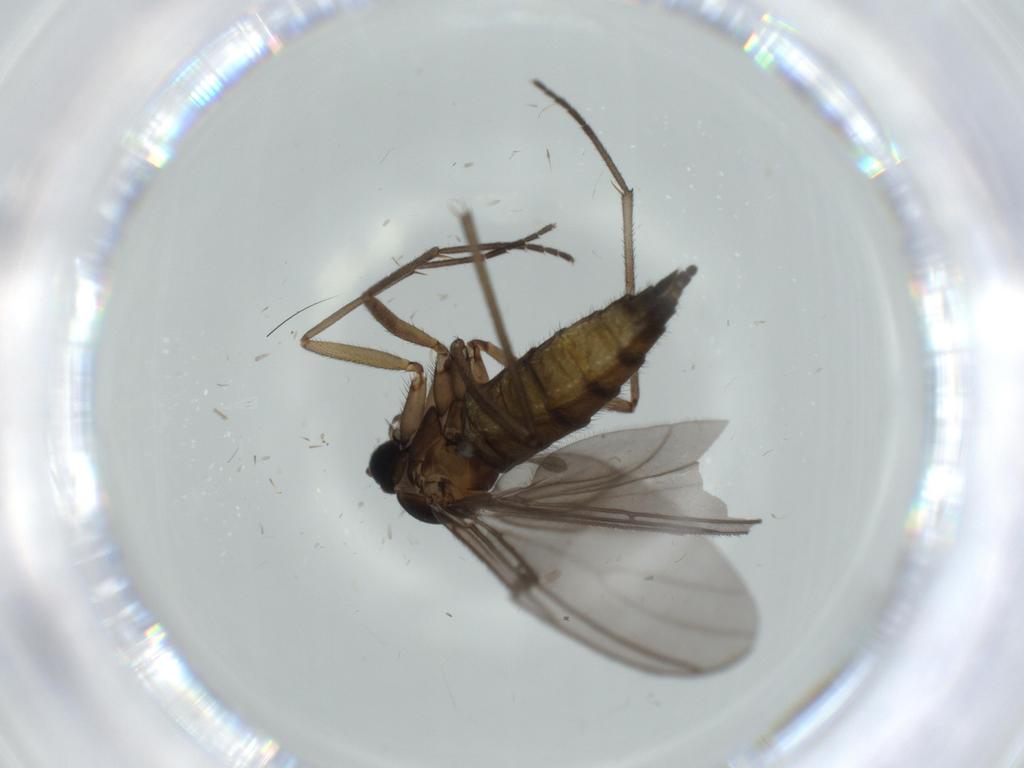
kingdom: Animalia
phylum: Arthropoda
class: Insecta
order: Diptera
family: Sciaridae
